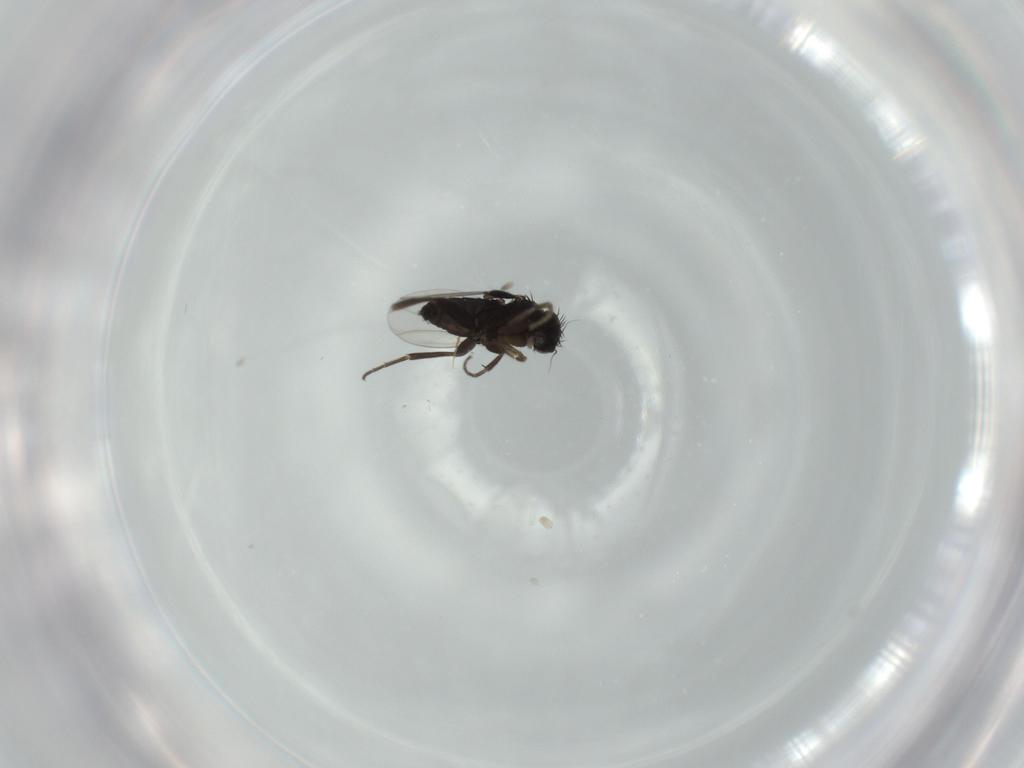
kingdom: Animalia
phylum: Arthropoda
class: Insecta
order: Diptera
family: Phoridae
